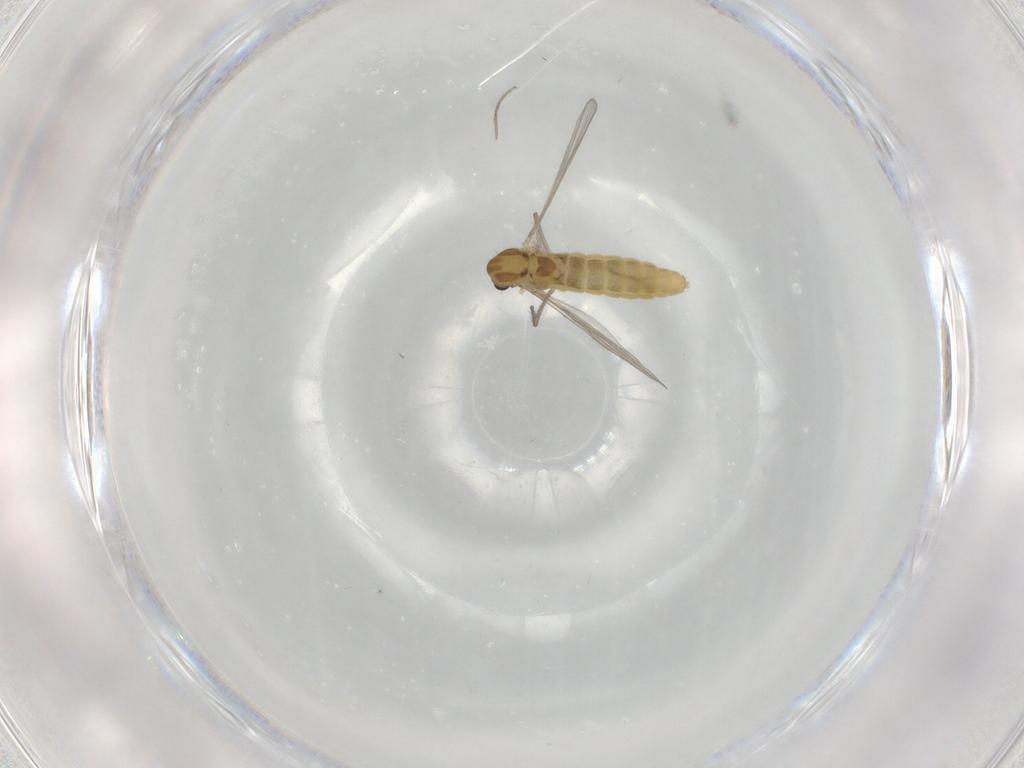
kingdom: Animalia
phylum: Arthropoda
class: Insecta
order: Diptera
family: Chironomidae
